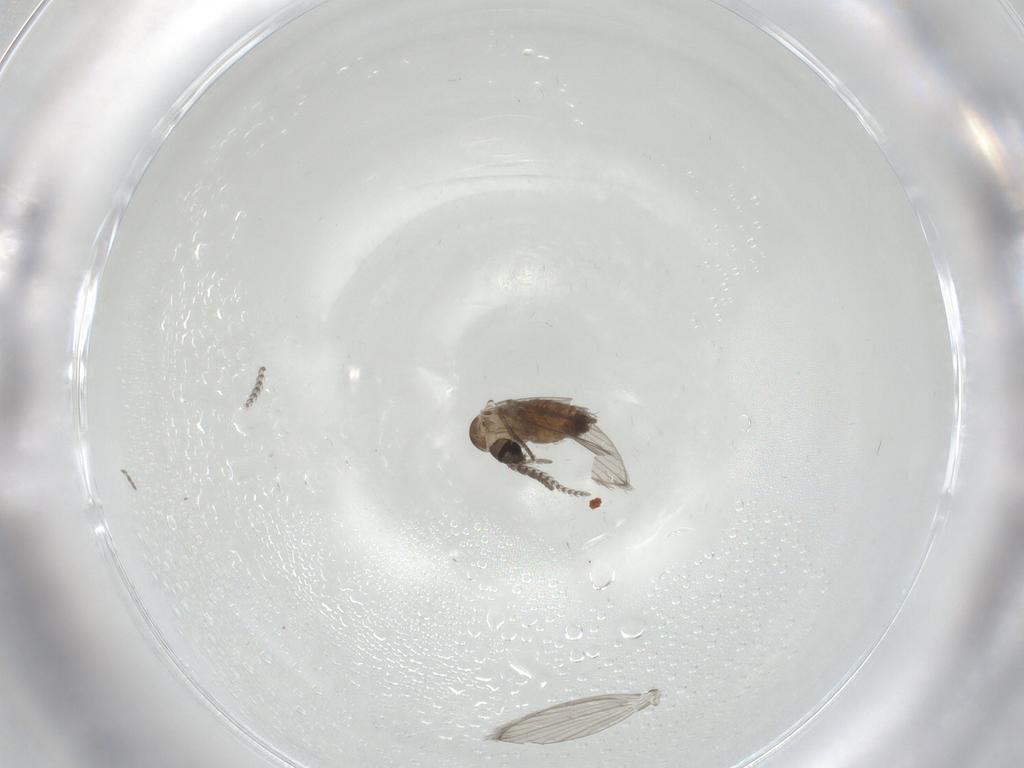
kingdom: Animalia
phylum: Arthropoda
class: Insecta
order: Diptera
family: Psychodidae
